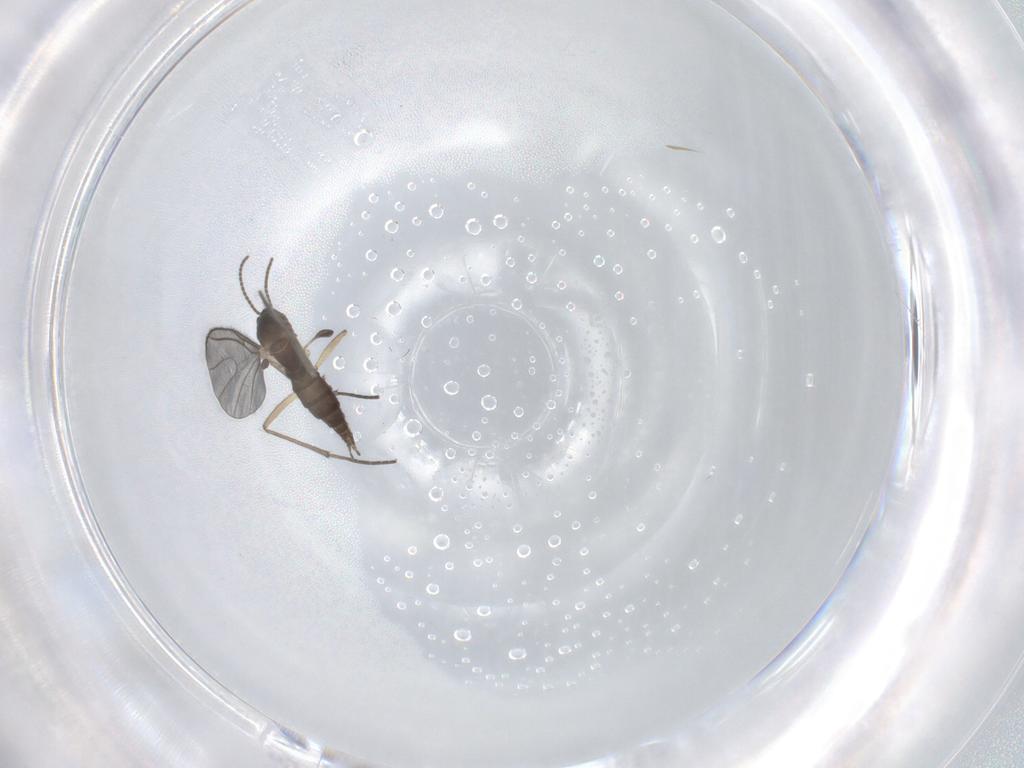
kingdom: Animalia
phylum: Arthropoda
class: Insecta
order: Diptera
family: Sciaridae
